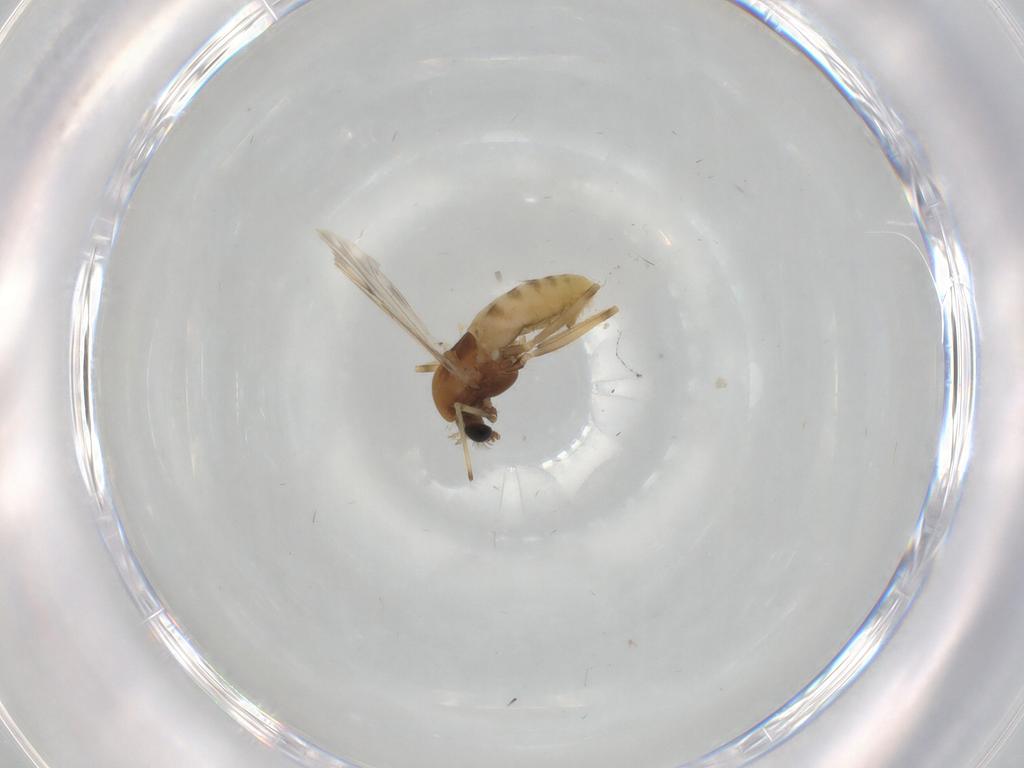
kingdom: Animalia
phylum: Arthropoda
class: Insecta
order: Diptera
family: Chironomidae
